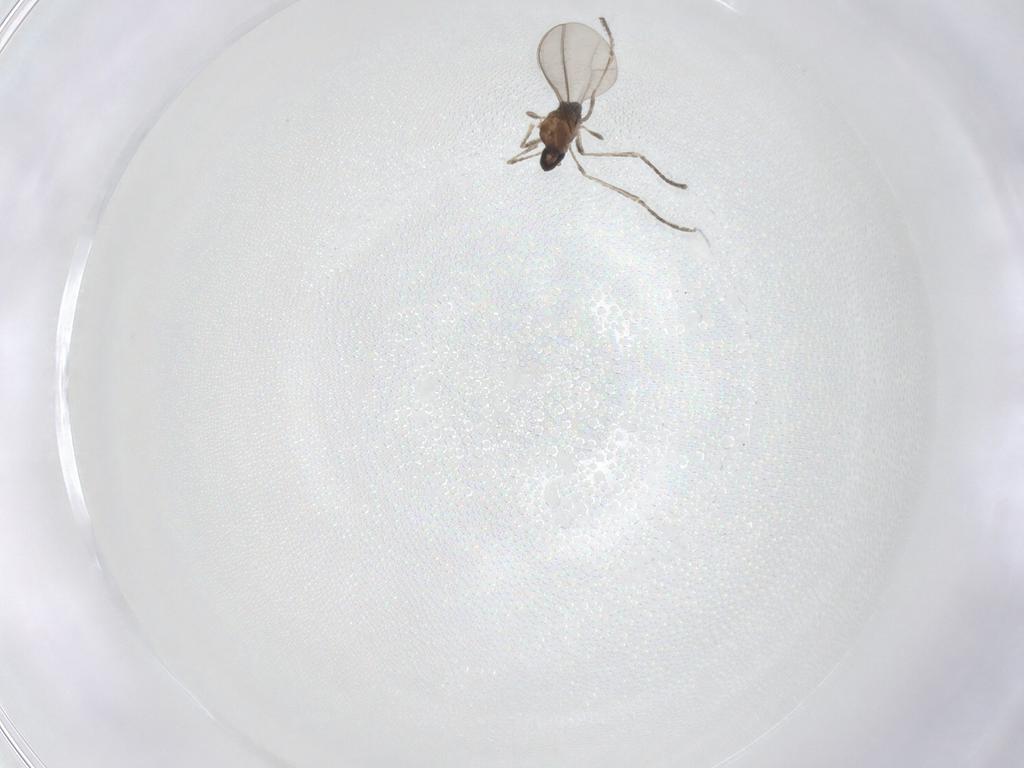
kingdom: Animalia
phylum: Arthropoda
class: Insecta
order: Diptera
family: Cecidomyiidae
